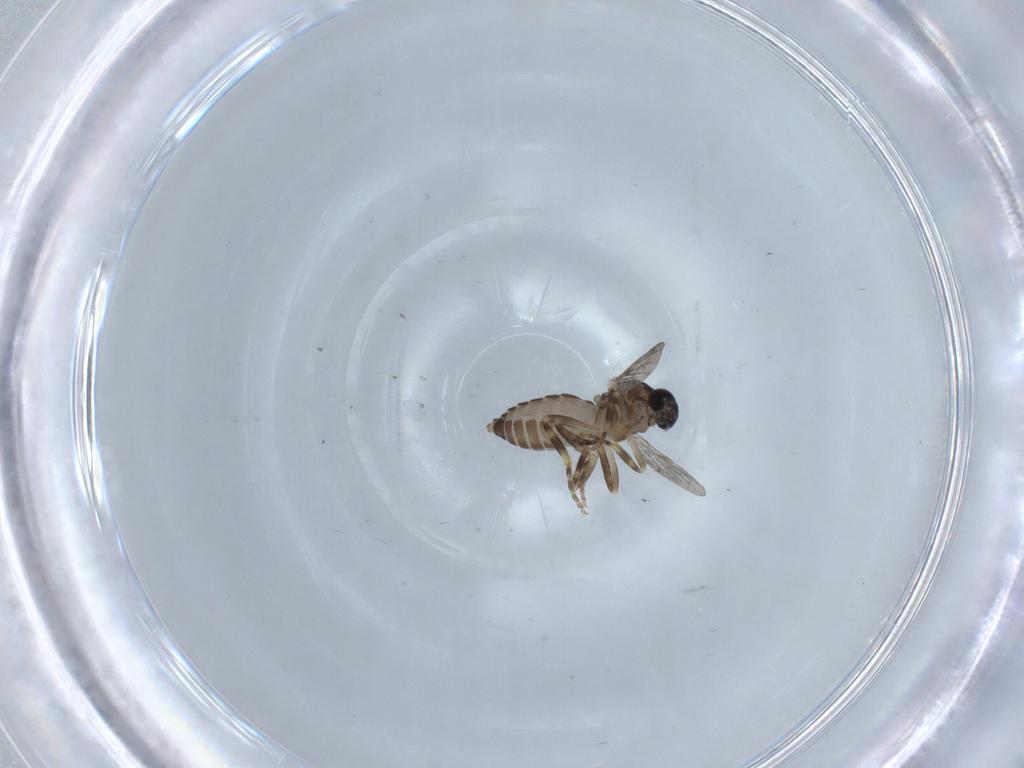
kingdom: Animalia
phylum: Arthropoda
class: Insecta
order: Diptera
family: Ceratopogonidae
